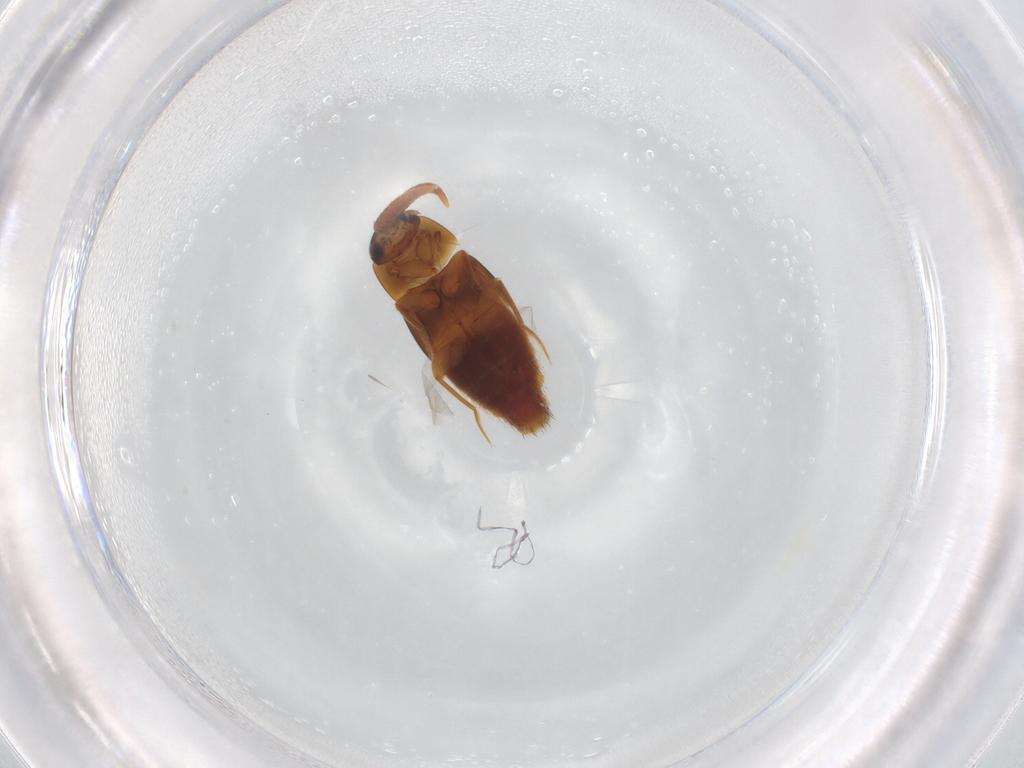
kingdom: Animalia
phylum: Arthropoda
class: Insecta
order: Coleoptera
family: Staphylinidae
